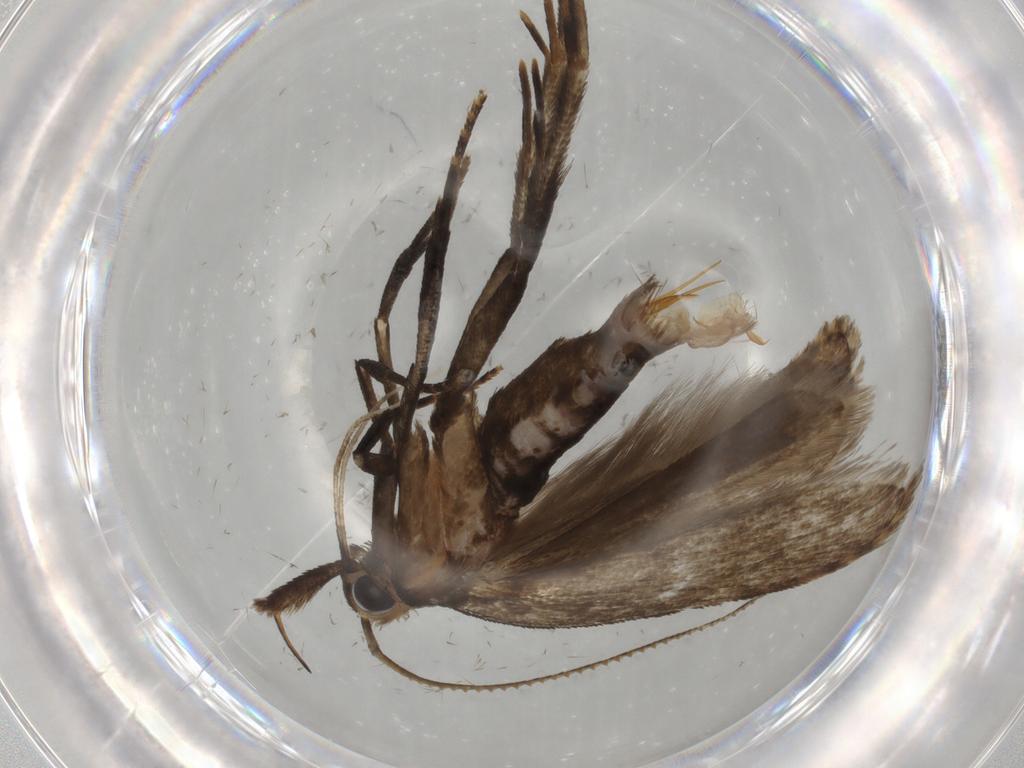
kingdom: Animalia
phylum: Arthropoda
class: Insecta
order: Lepidoptera
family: Gelechiidae
